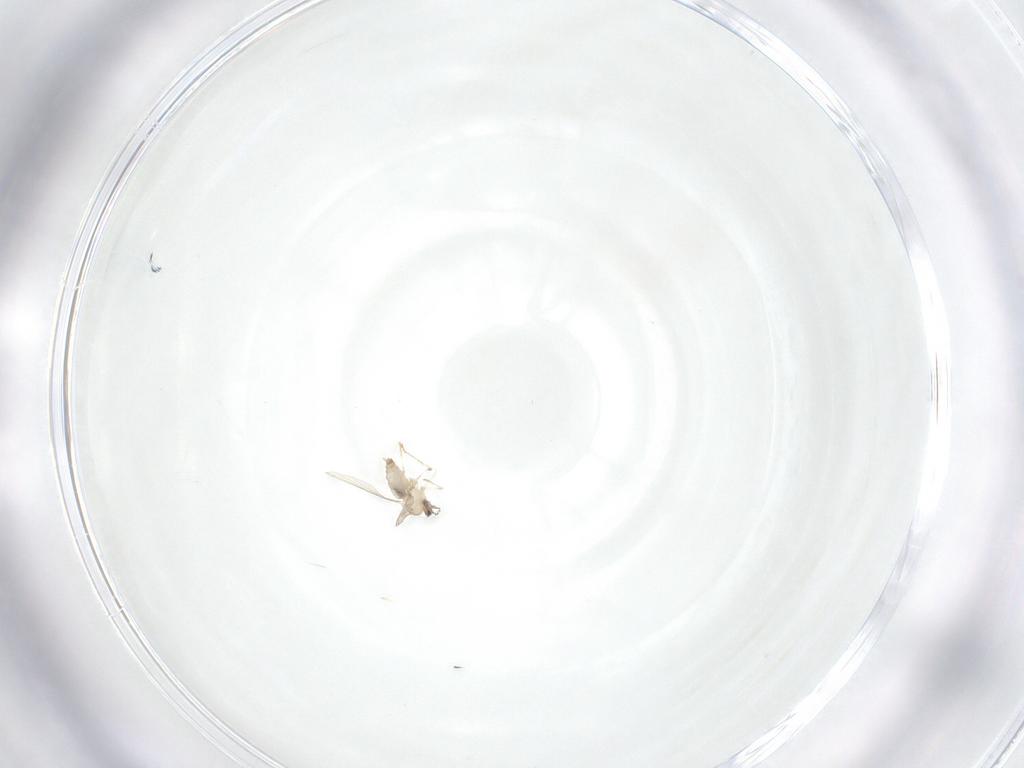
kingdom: Animalia
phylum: Arthropoda
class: Insecta
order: Diptera
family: Cecidomyiidae
